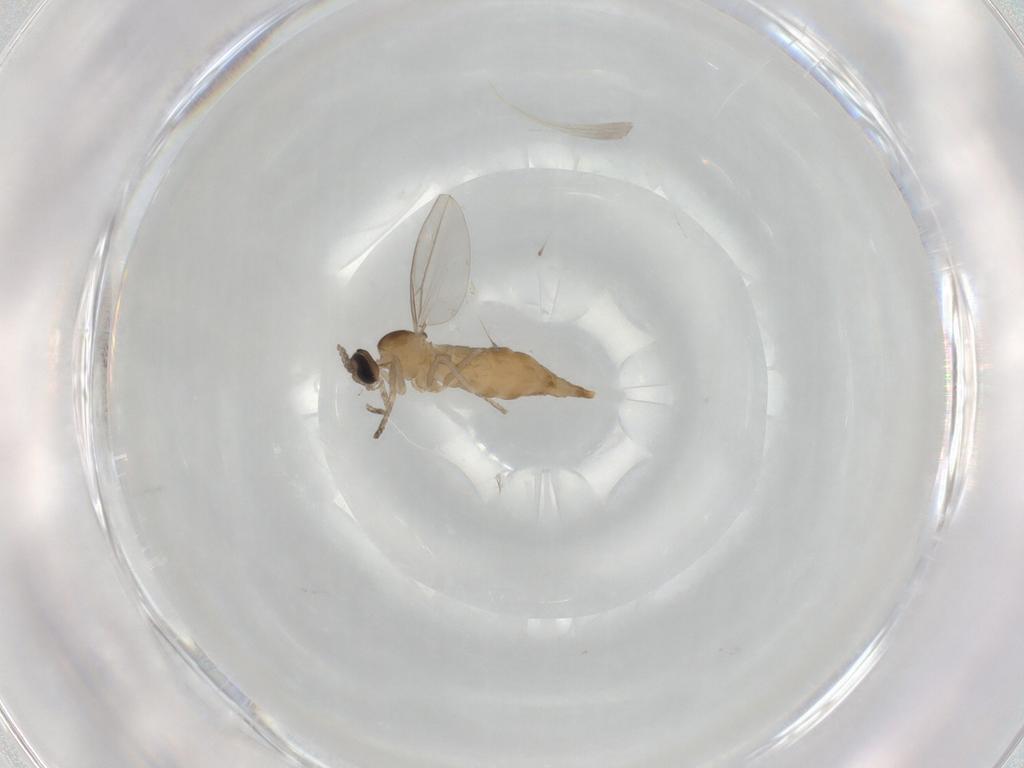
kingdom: Animalia
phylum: Arthropoda
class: Insecta
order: Diptera
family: Cecidomyiidae
